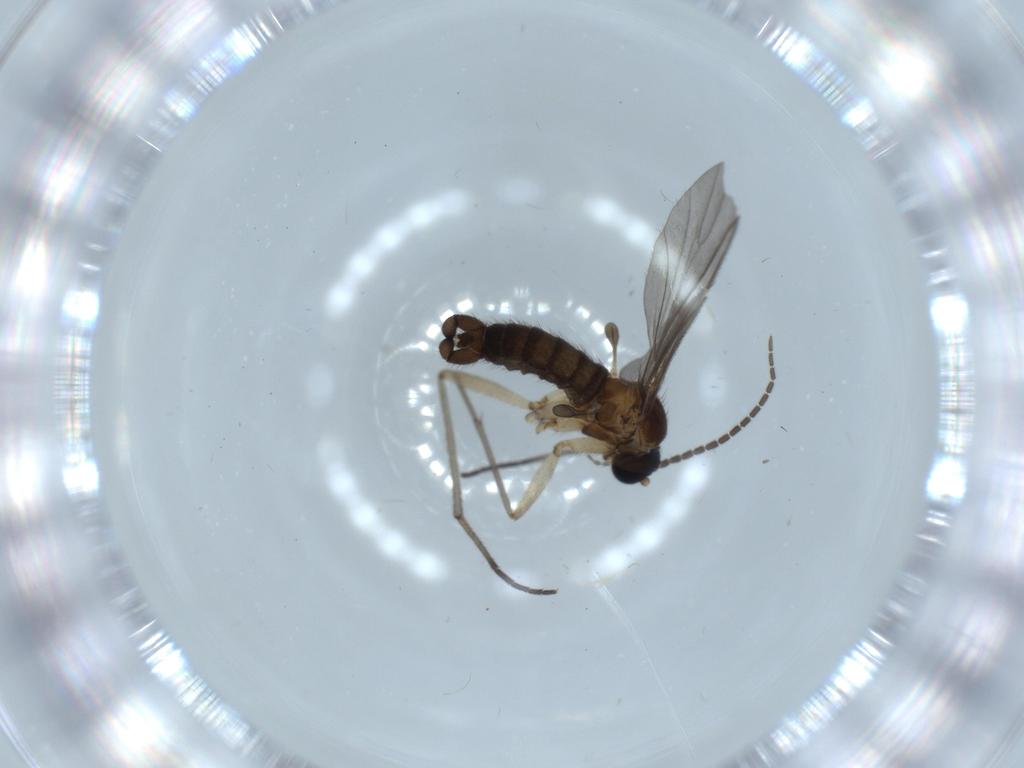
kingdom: Animalia
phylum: Arthropoda
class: Insecta
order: Diptera
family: Sciaridae
